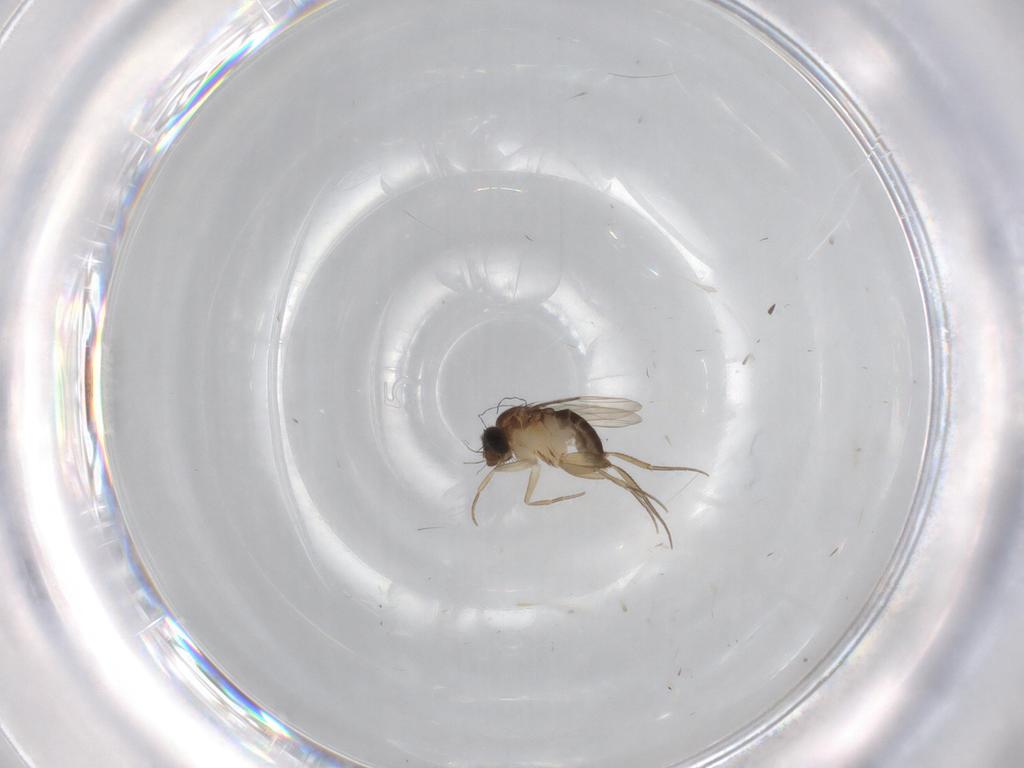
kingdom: Animalia
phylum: Arthropoda
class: Insecta
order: Diptera
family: Phoridae
